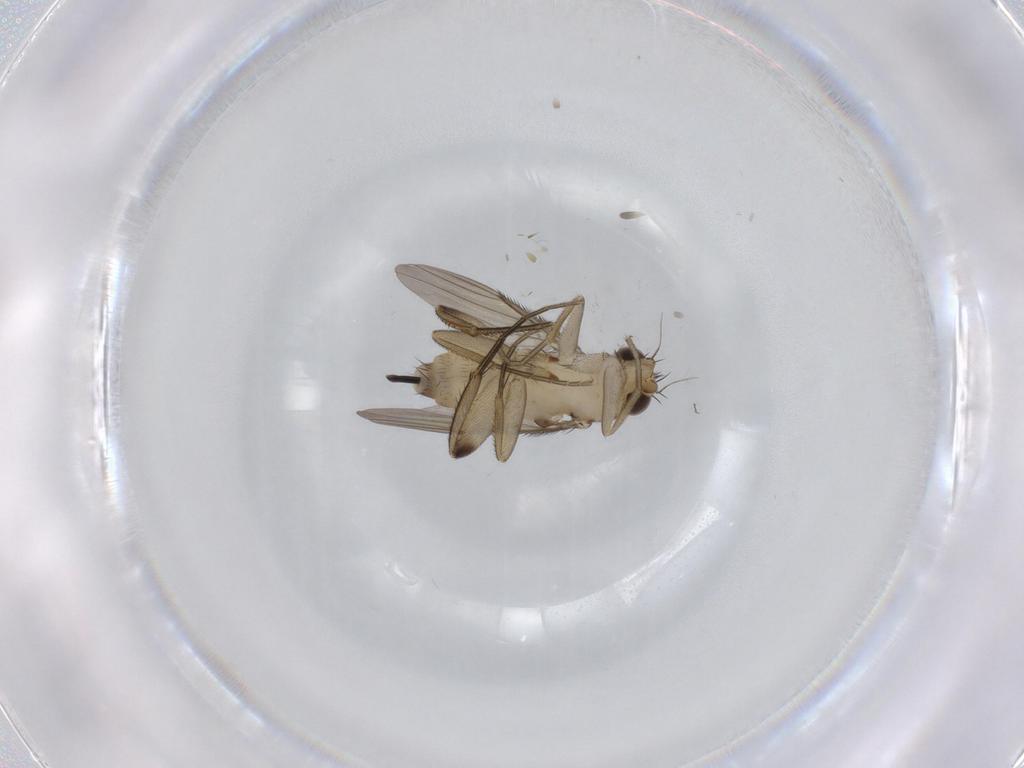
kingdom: Animalia
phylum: Arthropoda
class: Insecta
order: Diptera
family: Phoridae
